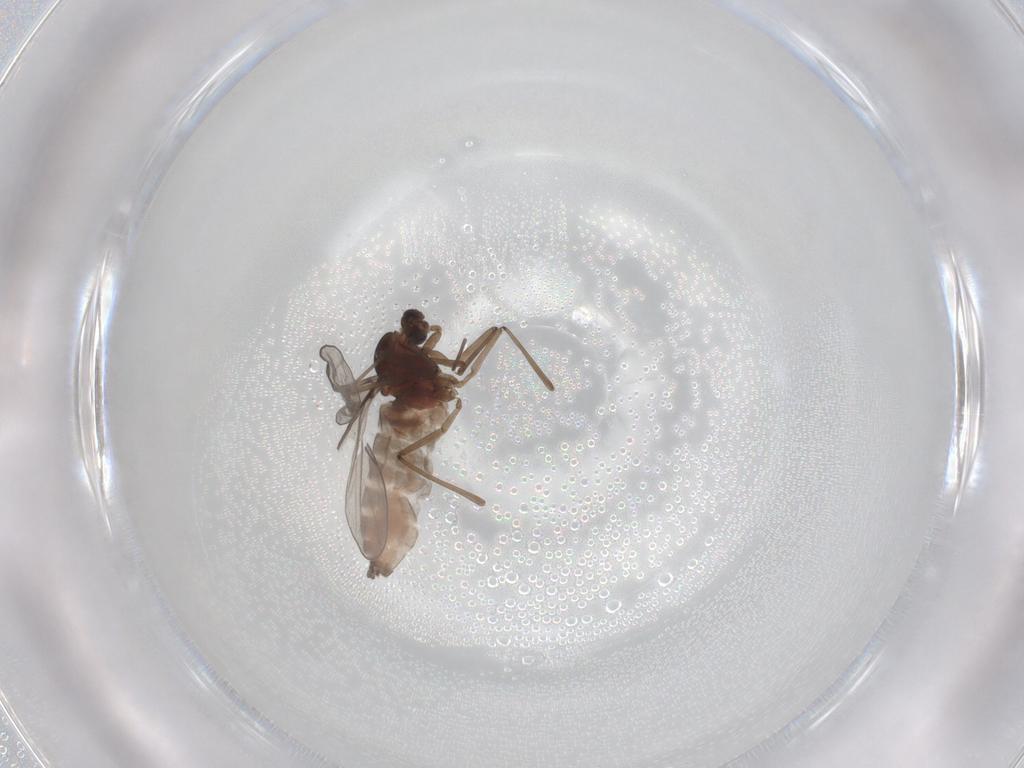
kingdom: Animalia
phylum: Arthropoda
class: Insecta
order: Diptera
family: Cecidomyiidae
